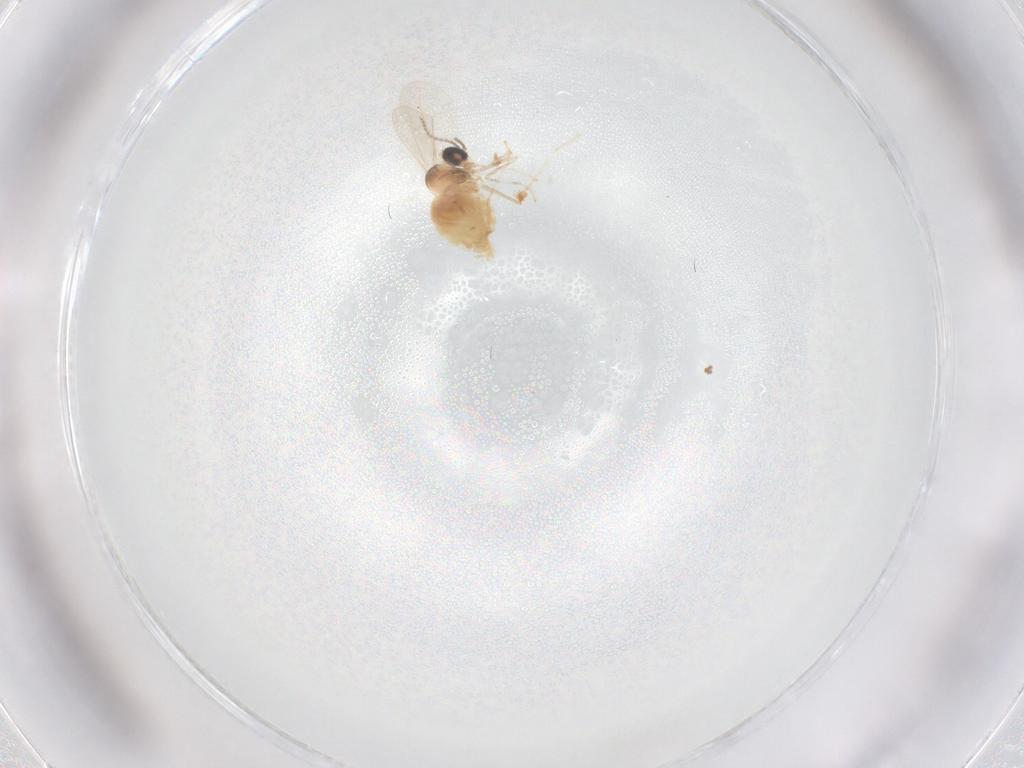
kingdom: Animalia
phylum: Arthropoda
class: Insecta
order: Diptera
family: Cecidomyiidae
